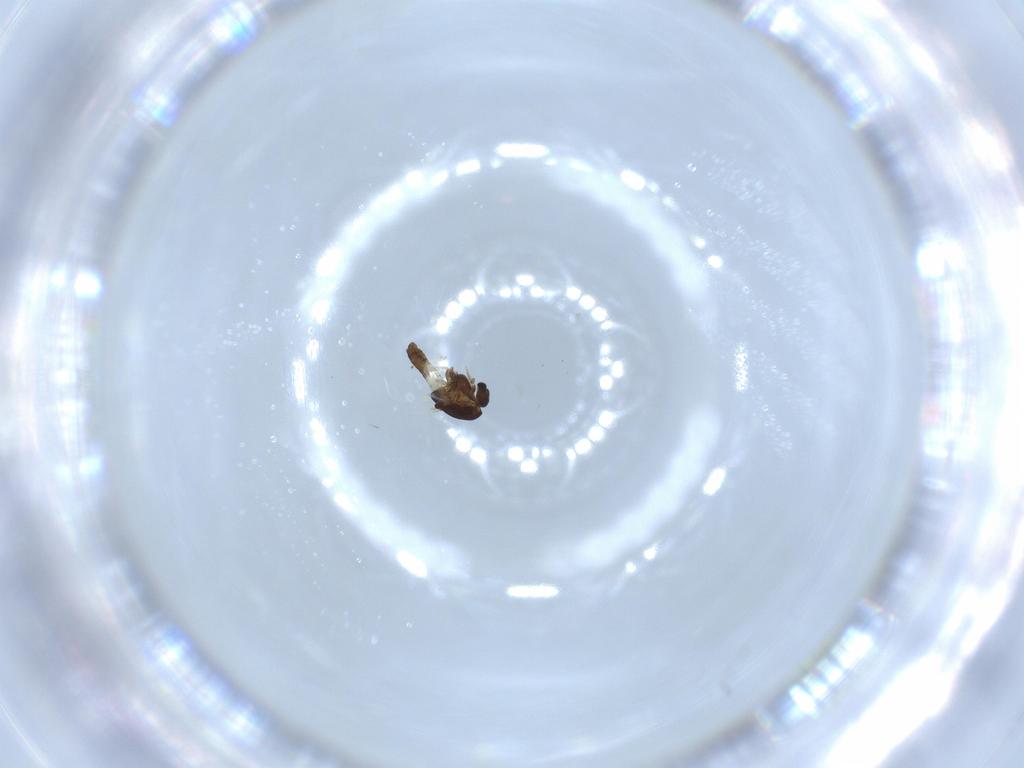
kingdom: Animalia
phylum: Arthropoda
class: Insecta
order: Diptera
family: Chironomidae
